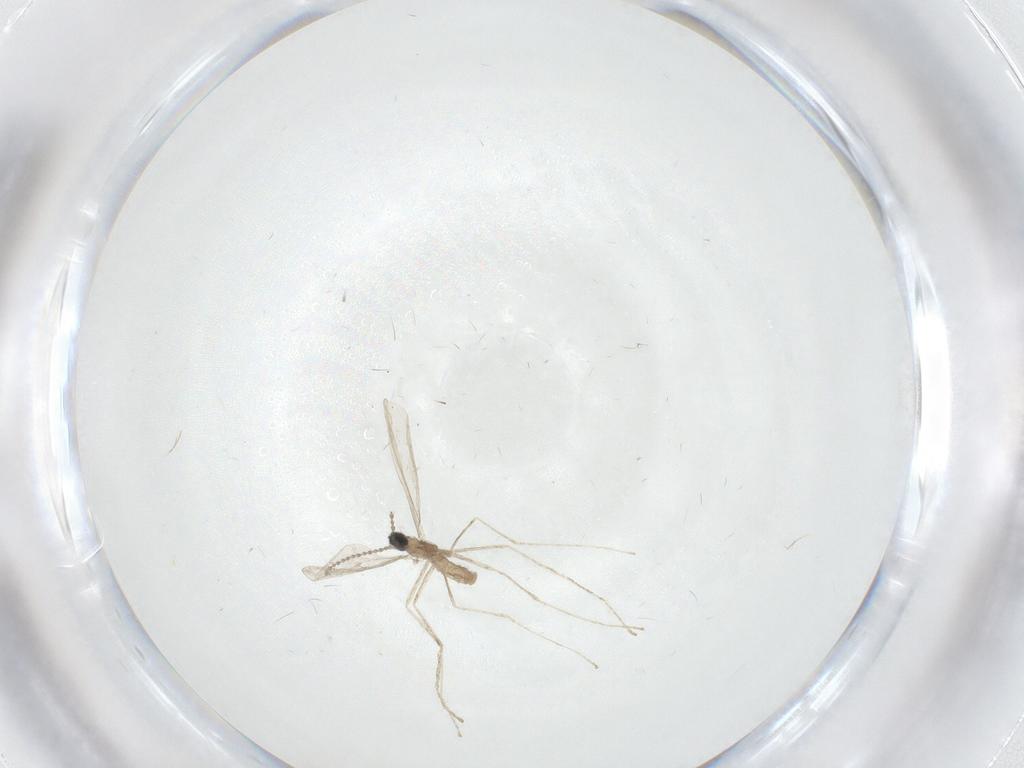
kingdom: Animalia
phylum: Arthropoda
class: Insecta
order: Diptera
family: Cecidomyiidae
